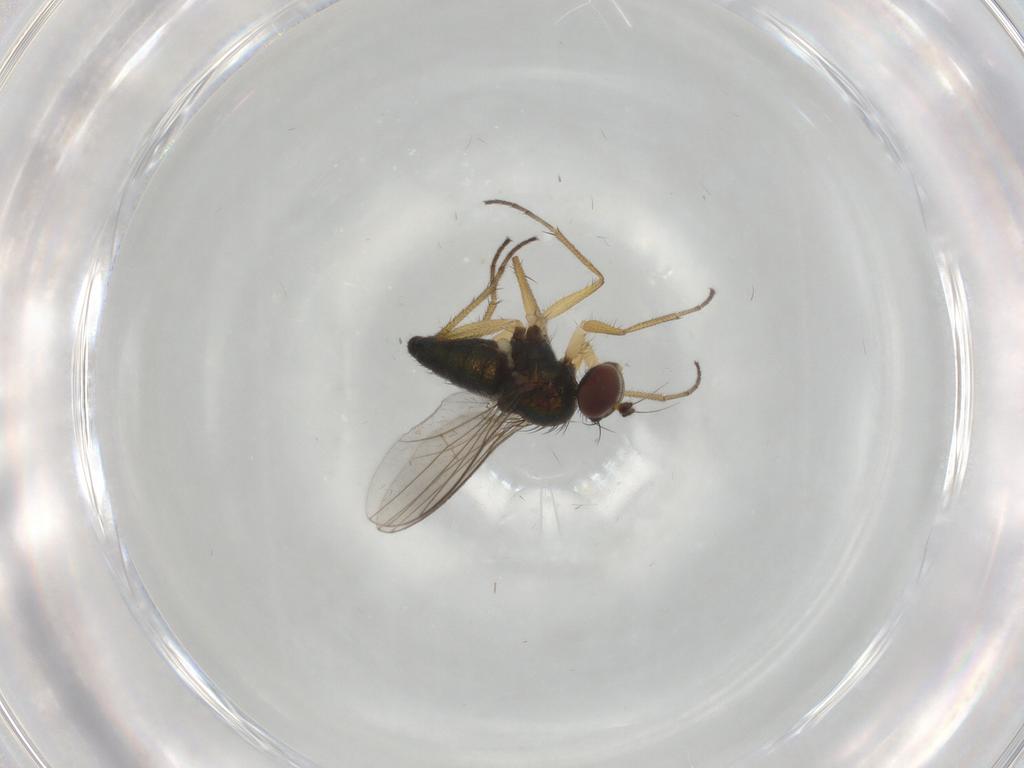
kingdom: Animalia
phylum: Arthropoda
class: Insecta
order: Diptera
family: Dolichopodidae
